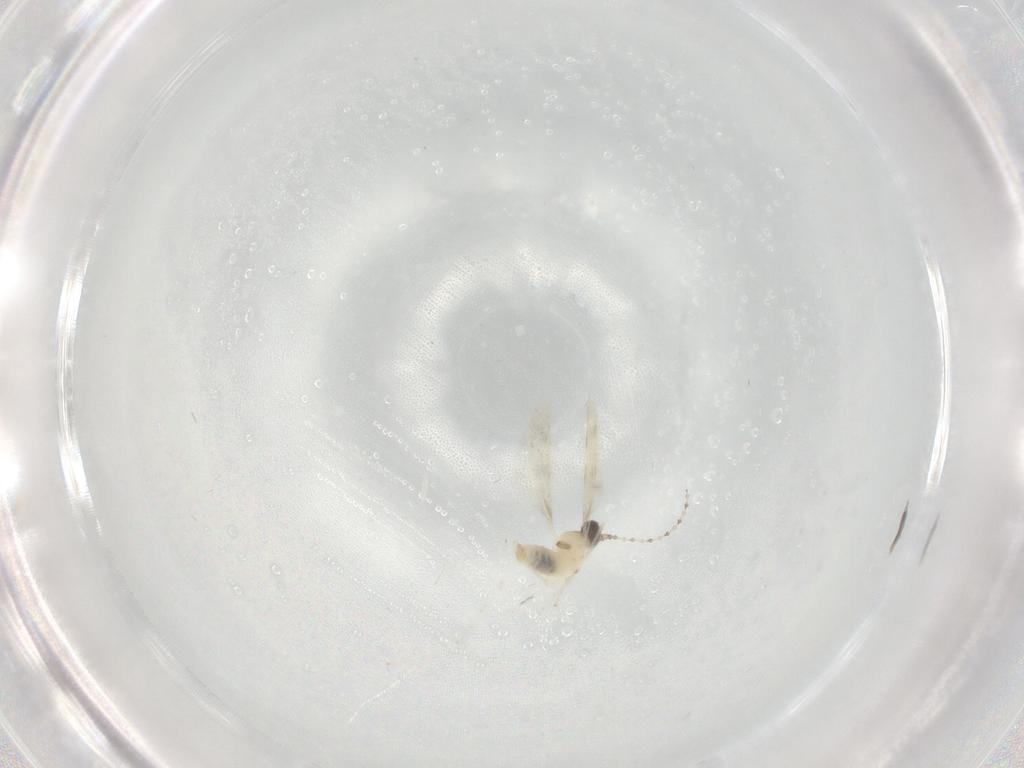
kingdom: Animalia
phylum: Arthropoda
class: Insecta
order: Diptera
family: Cecidomyiidae
